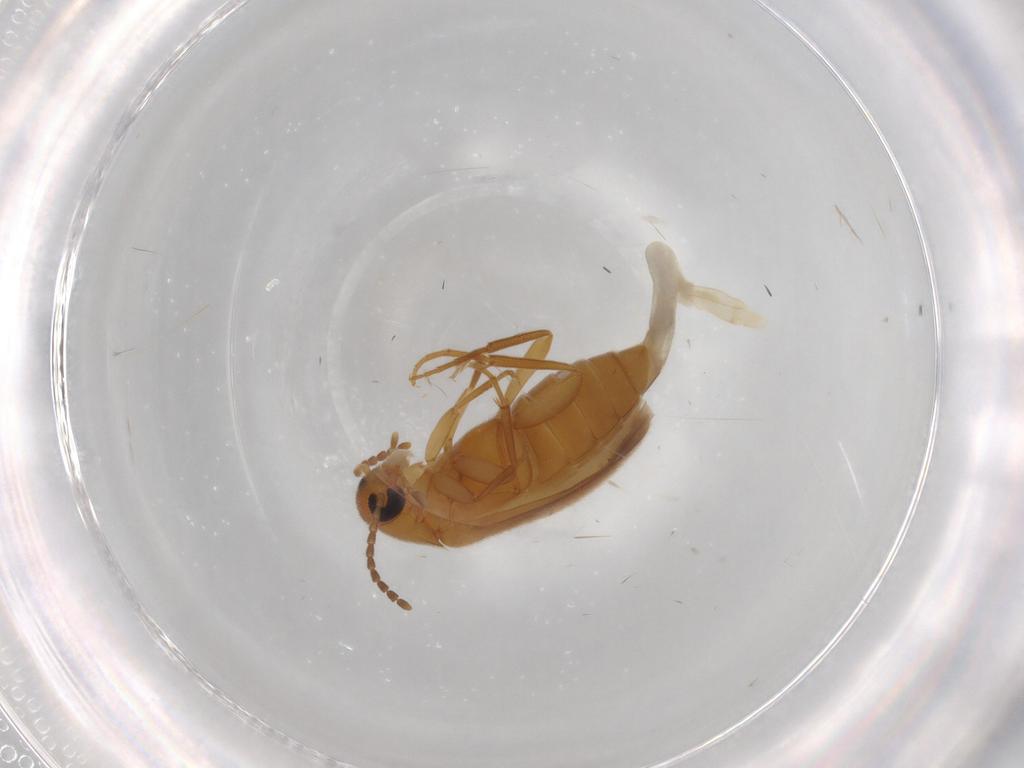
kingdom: Animalia
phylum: Arthropoda
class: Insecta
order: Coleoptera
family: Scraptiidae
